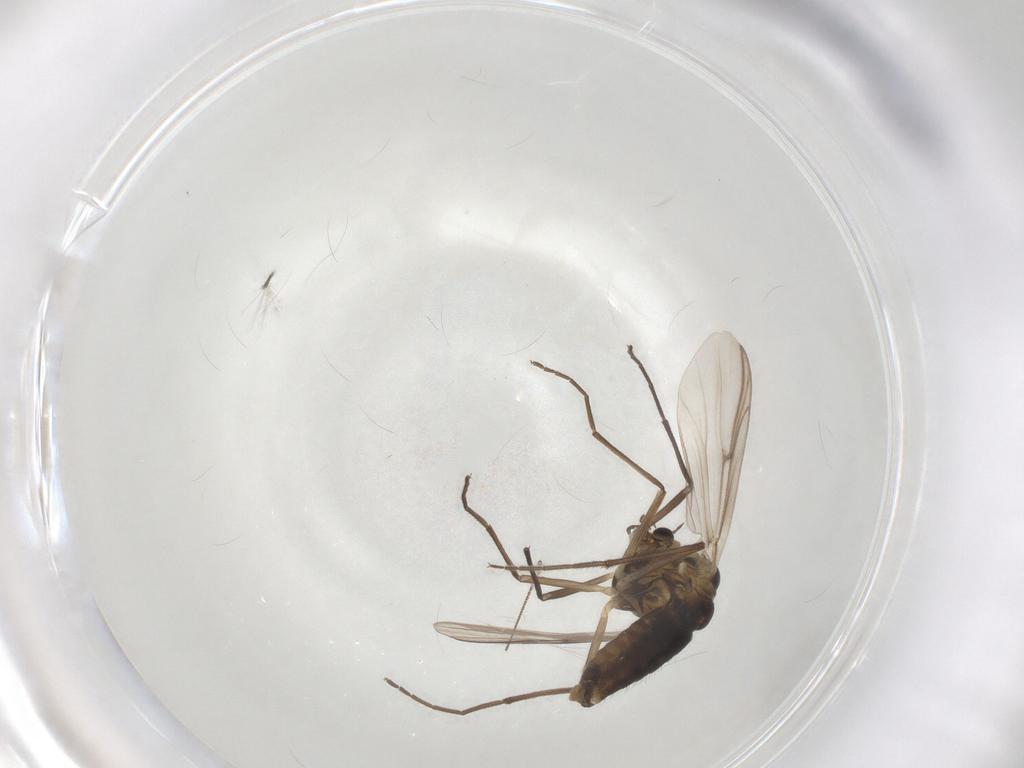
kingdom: Animalia
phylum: Arthropoda
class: Insecta
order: Diptera
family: Chironomidae
